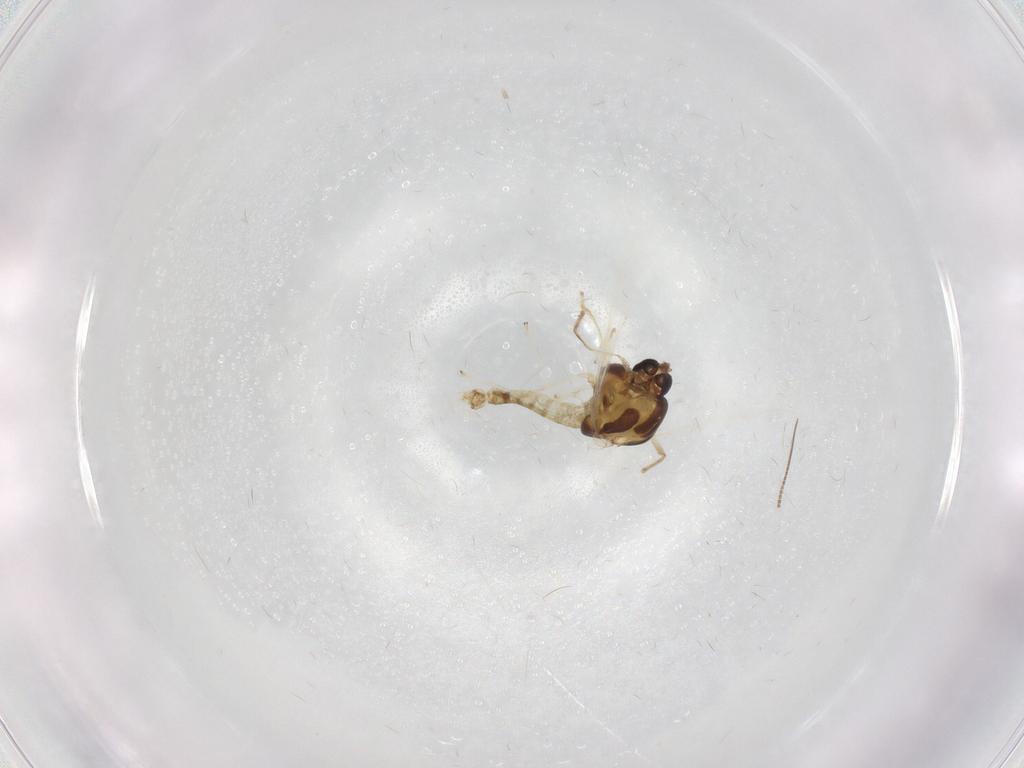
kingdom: Animalia
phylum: Arthropoda
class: Insecta
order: Diptera
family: Chironomidae
